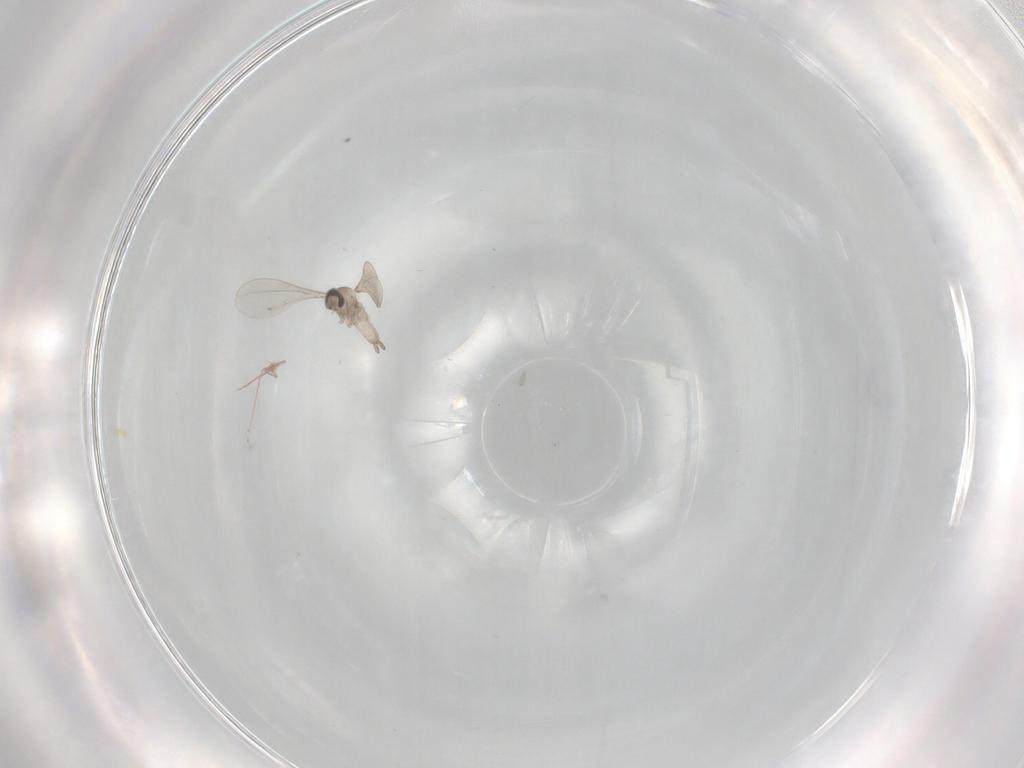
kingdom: Animalia
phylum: Arthropoda
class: Insecta
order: Diptera
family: Cecidomyiidae
